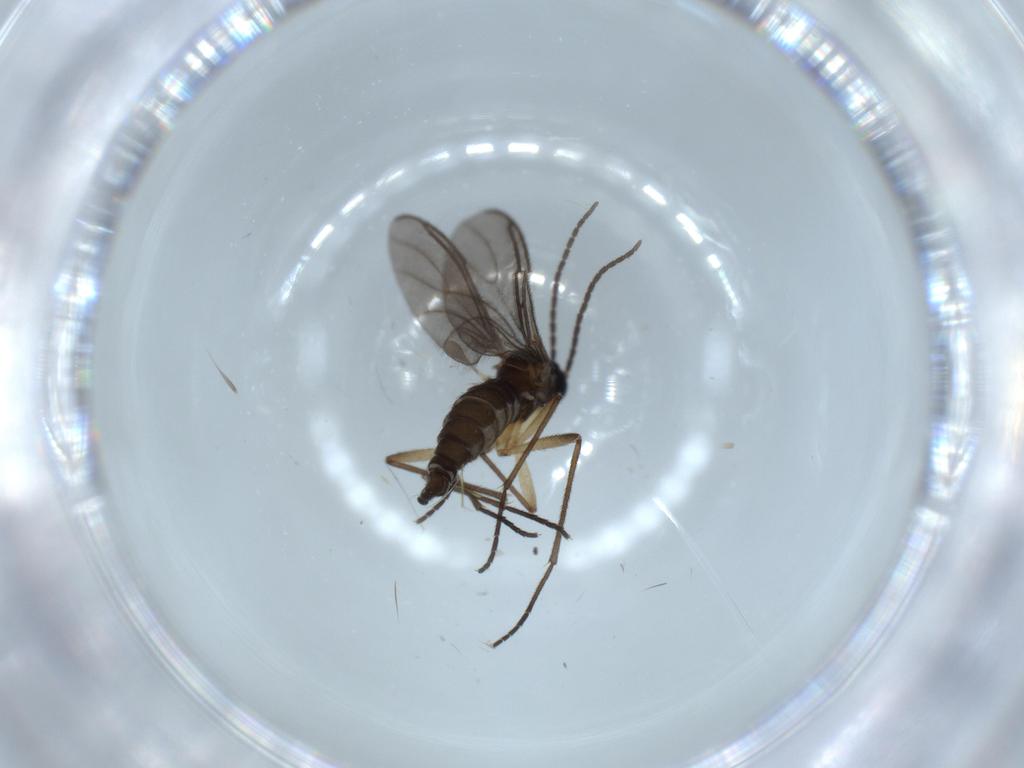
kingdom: Animalia
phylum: Arthropoda
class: Insecta
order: Diptera
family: Sciaridae
